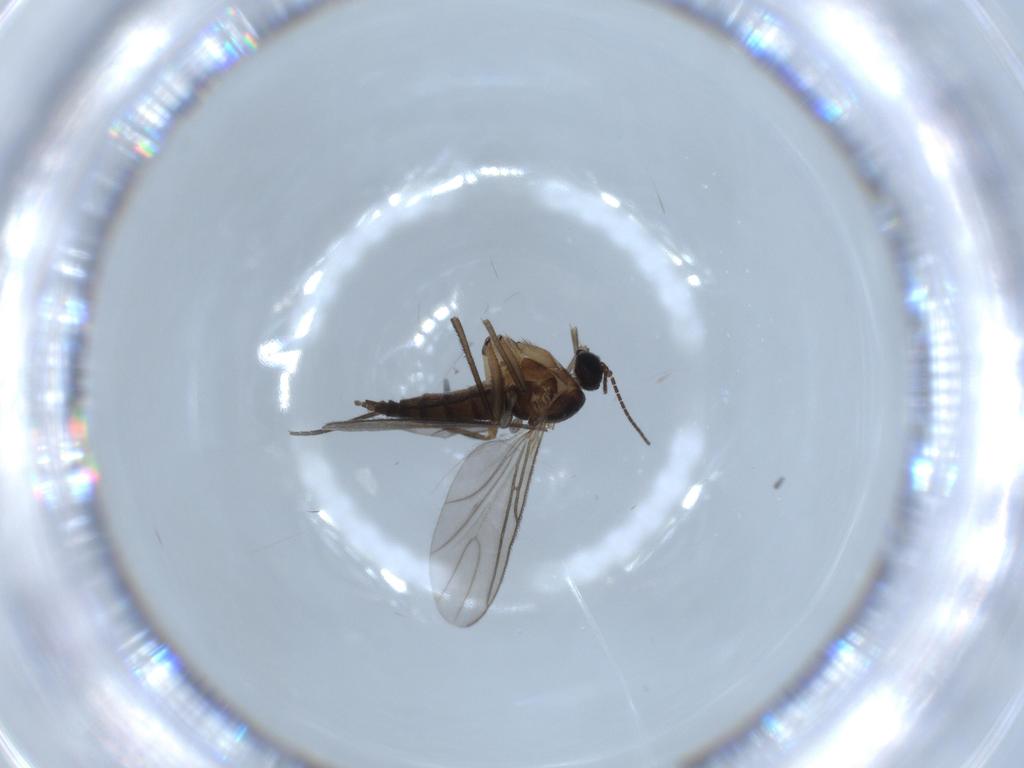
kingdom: Animalia
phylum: Arthropoda
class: Insecta
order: Diptera
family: Sciaridae
